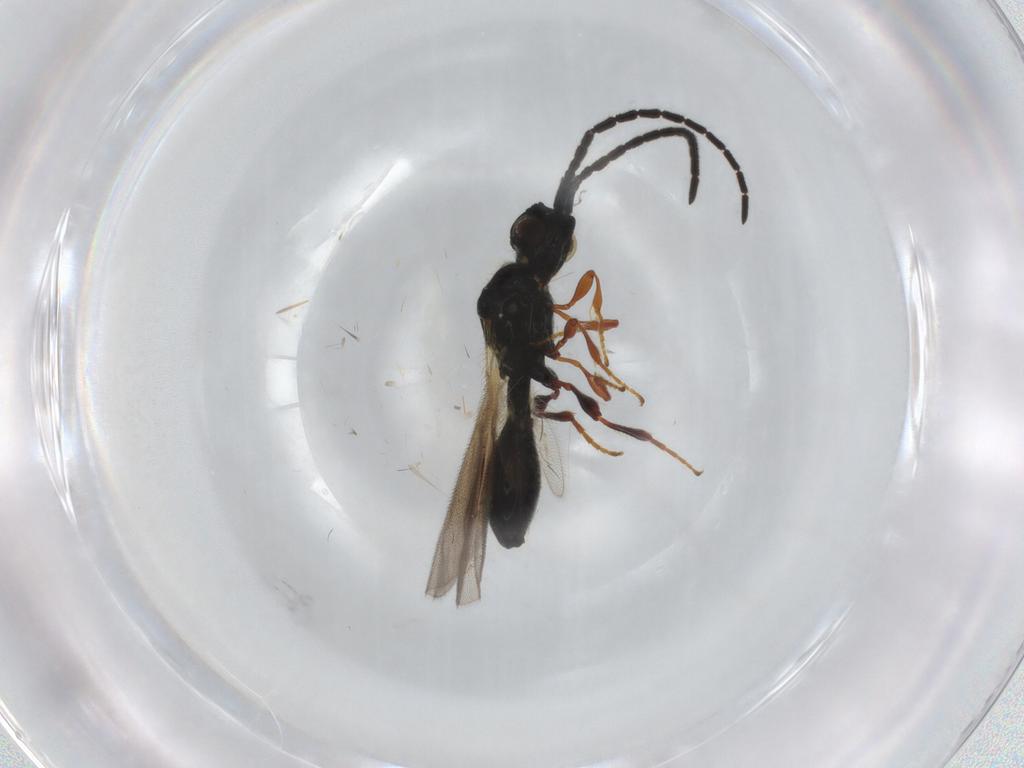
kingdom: Animalia
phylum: Arthropoda
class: Insecta
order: Hymenoptera
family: Diapriidae
